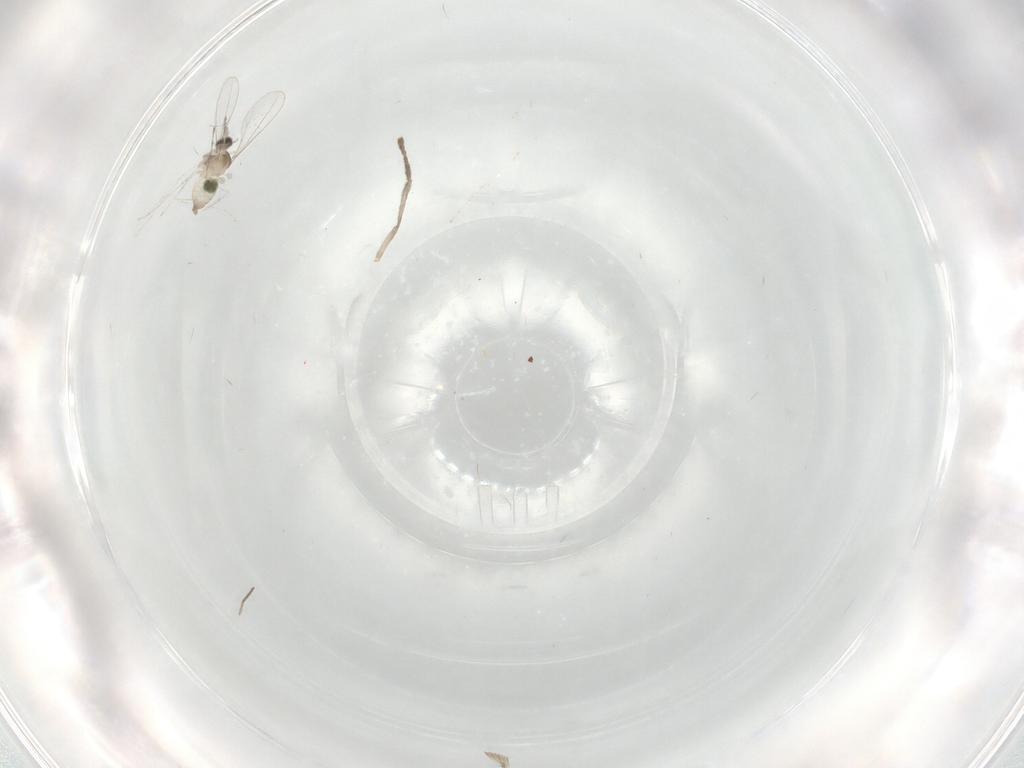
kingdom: Animalia
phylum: Arthropoda
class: Insecta
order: Diptera
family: Psychodidae
